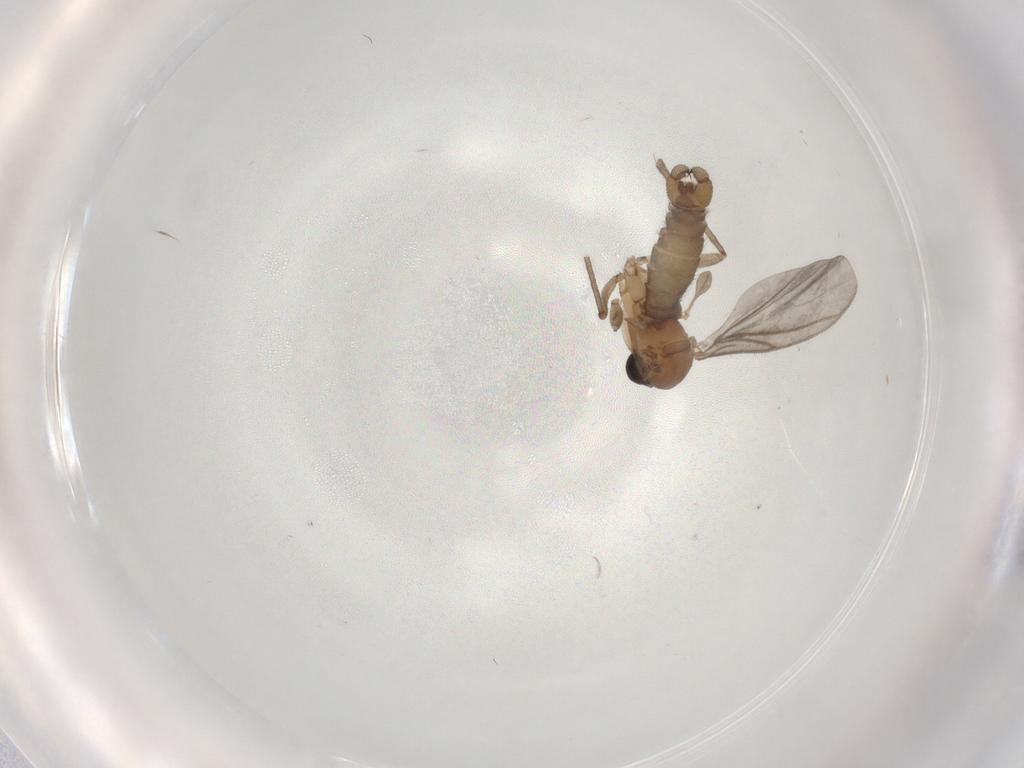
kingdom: Animalia
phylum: Arthropoda
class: Insecta
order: Diptera
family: Sciaridae
